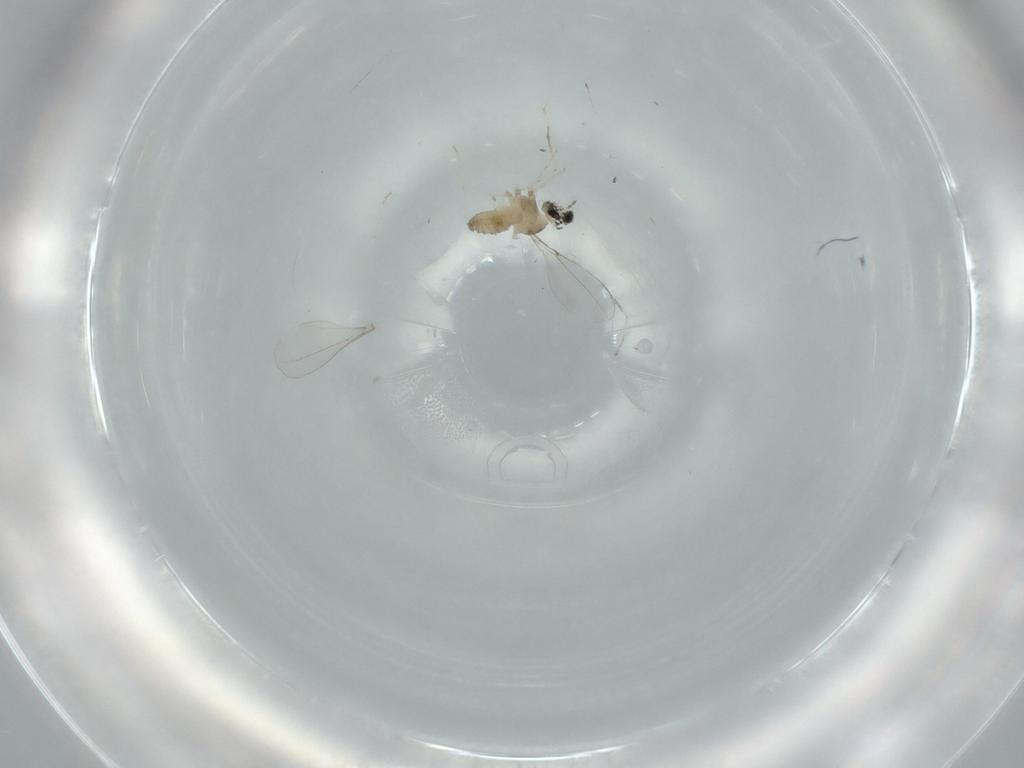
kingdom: Animalia
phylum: Arthropoda
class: Insecta
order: Diptera
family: Cecidomyiidae
